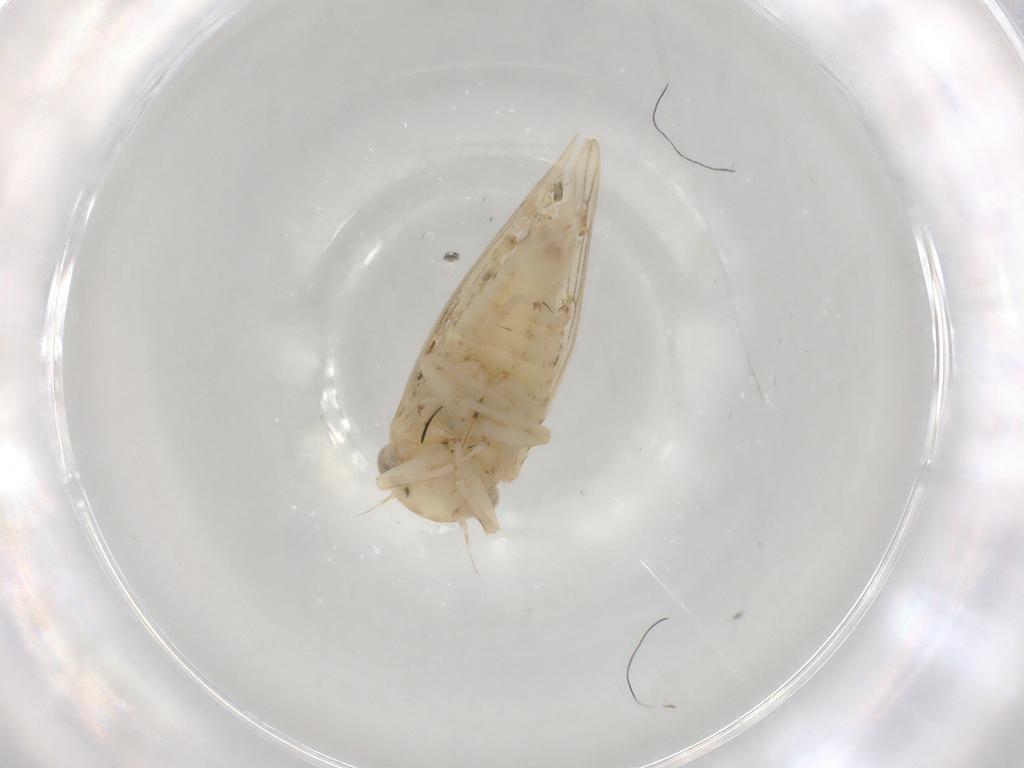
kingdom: Animalia
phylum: Arthropoda
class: Insecta
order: Hemiptera
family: Cicadellidae
